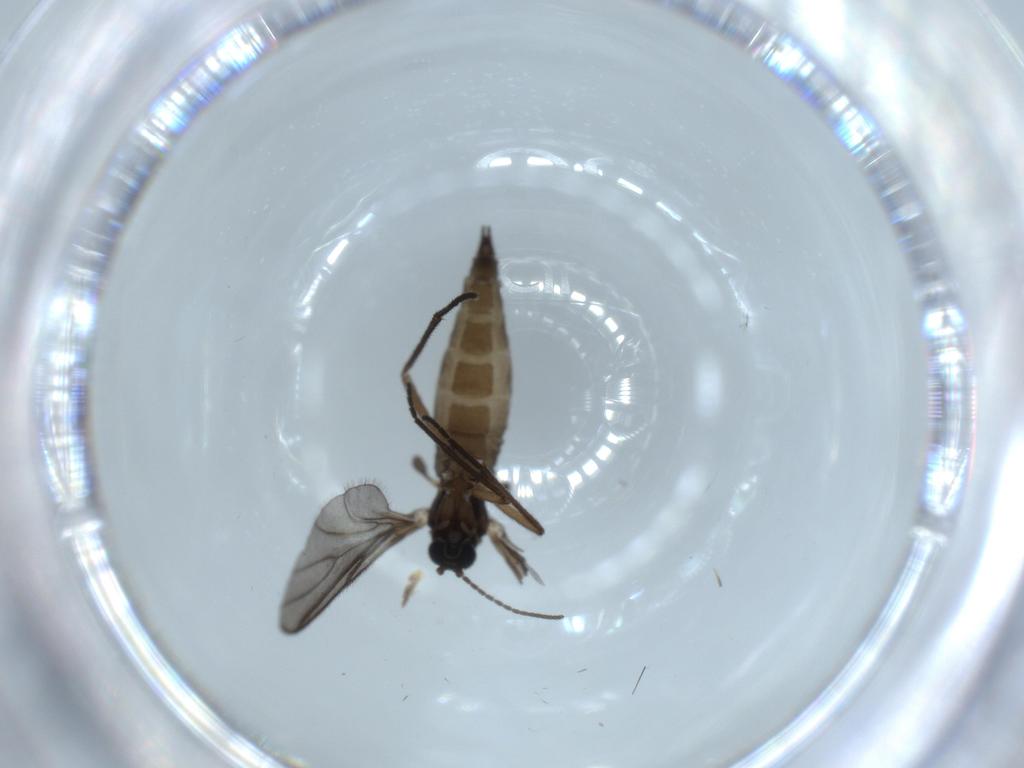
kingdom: Animalia
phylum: Arthropoda
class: Insecta
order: Diptera
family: Sciaridae
